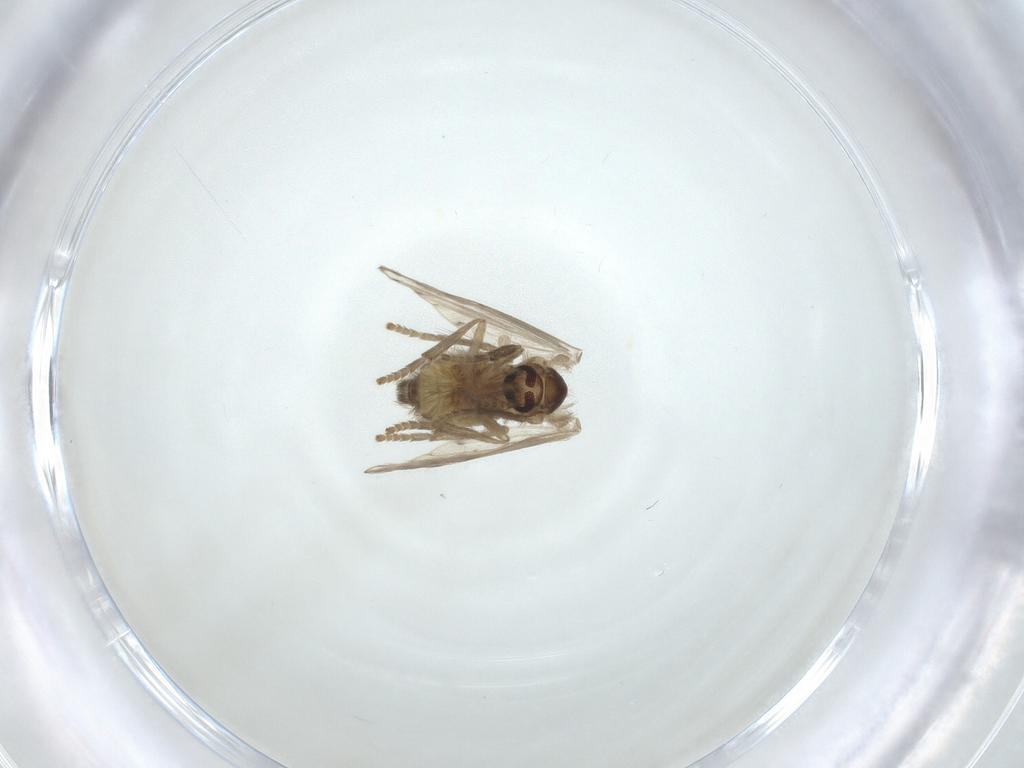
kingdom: Animalia
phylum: Arthropoda
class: Insecta
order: Diptera
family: Psychodidae
